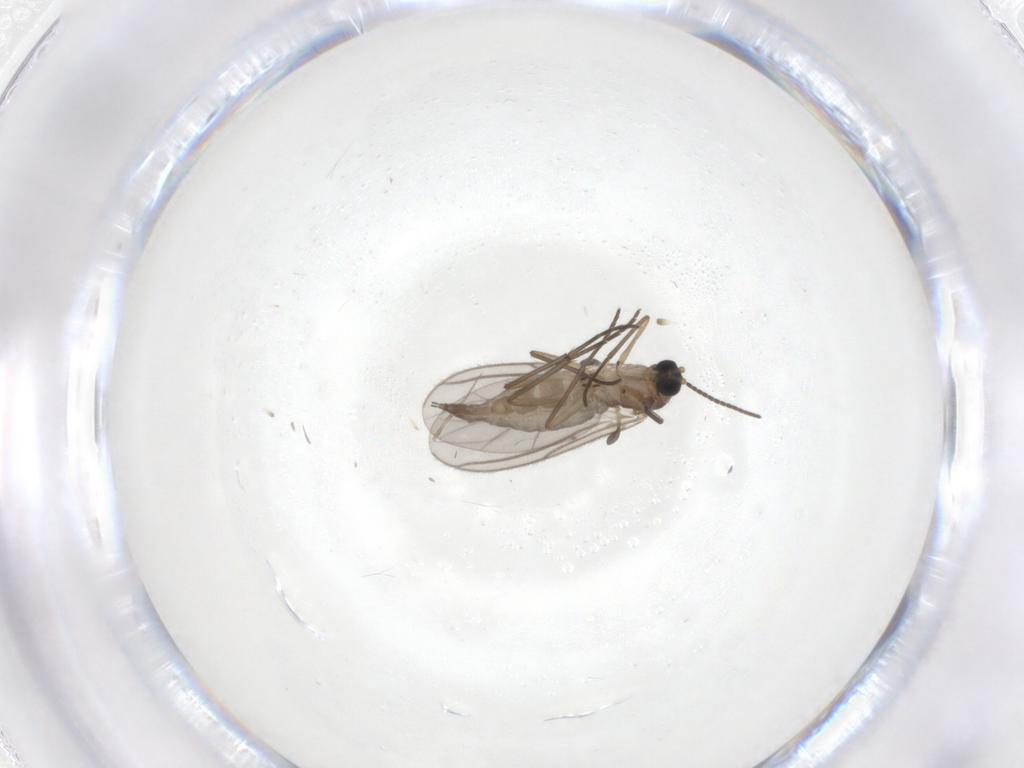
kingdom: Animalia
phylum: Arthropoda
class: Insecta
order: Diptera
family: Sciaridae
